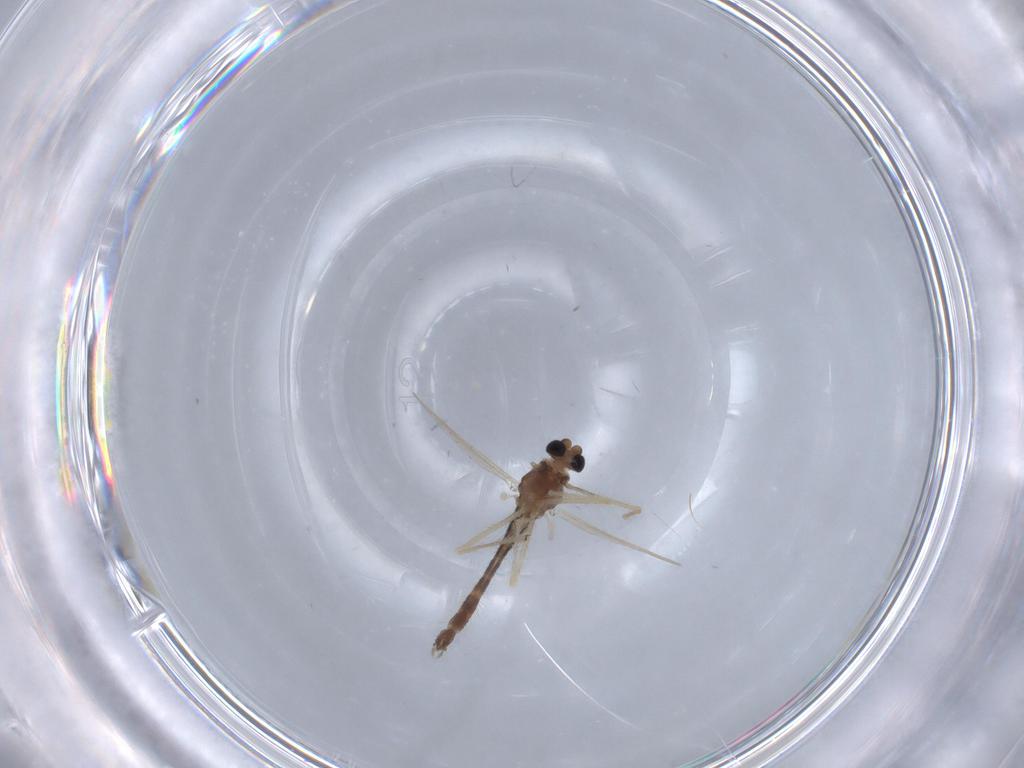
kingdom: Animalia
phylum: Arthropoda
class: Insecta
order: Diptera
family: Chironomidae
